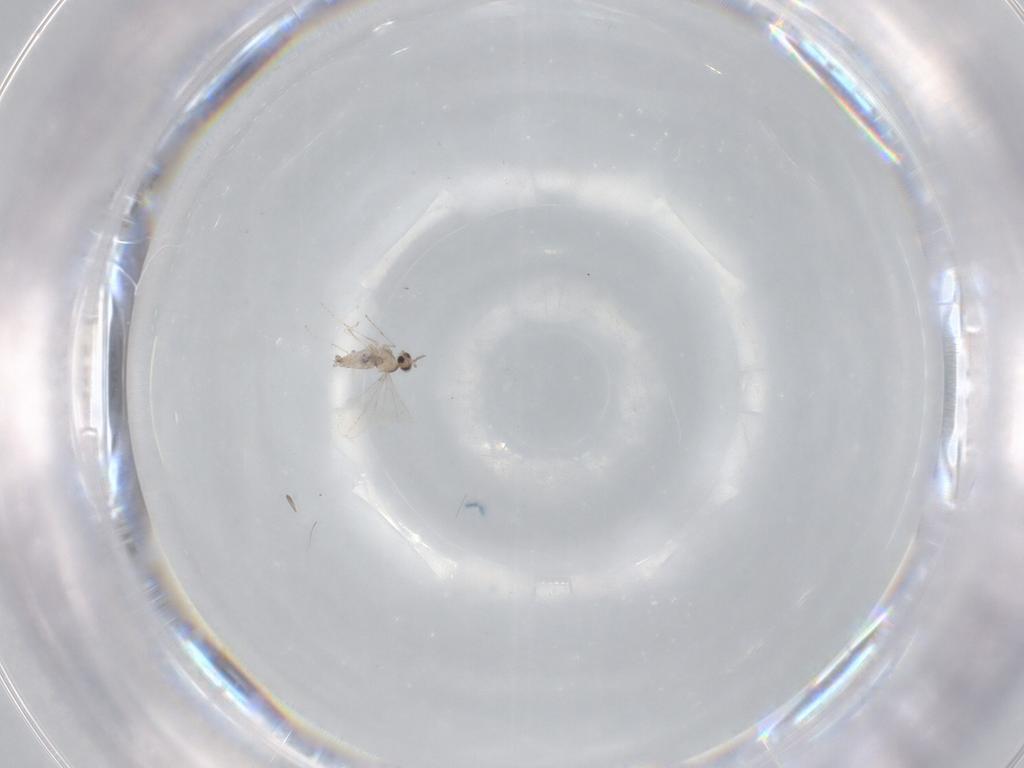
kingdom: Animalia
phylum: Arthropoda
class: Insecta
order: Diptera
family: Cecidomyiidae
